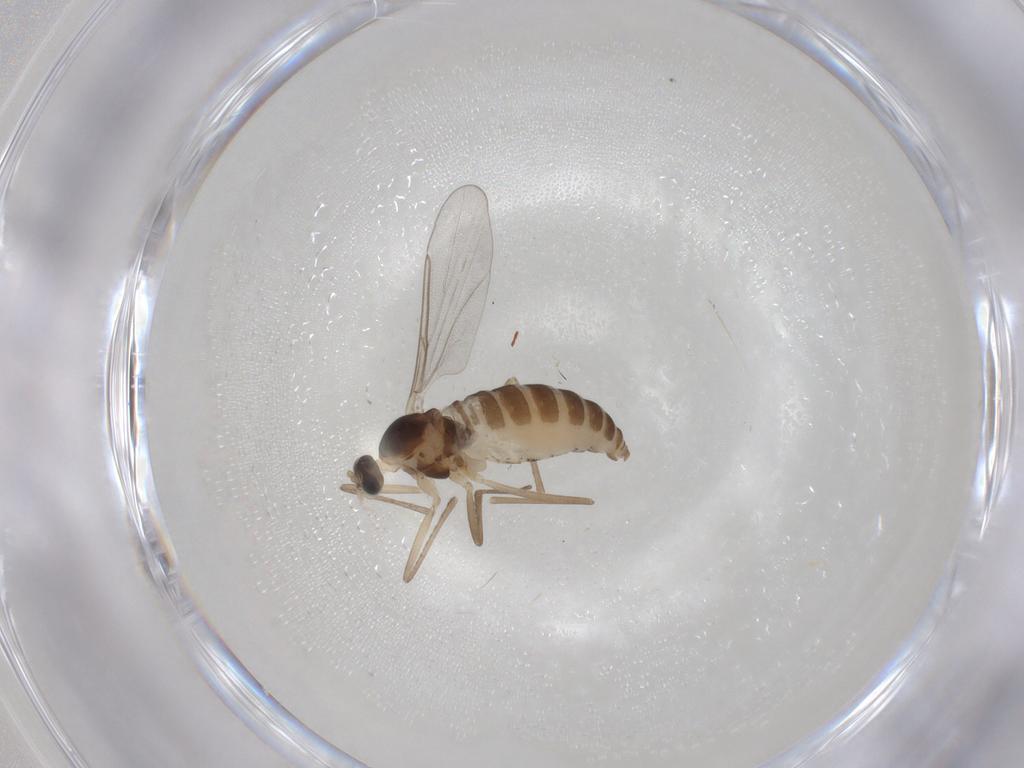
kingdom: Animalia
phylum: Arthropoda
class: Insecta
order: Diptera
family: Cecidomyiidae
